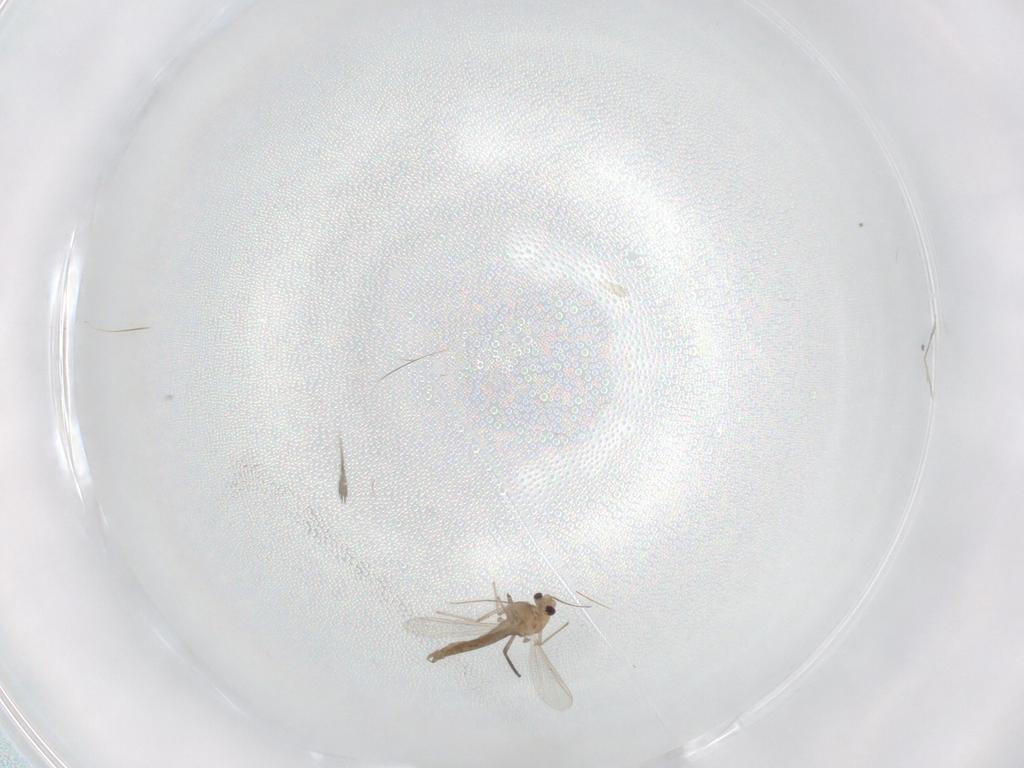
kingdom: Animalia
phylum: Arthropoda
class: Insecta
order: Diptera
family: Chironomidae
